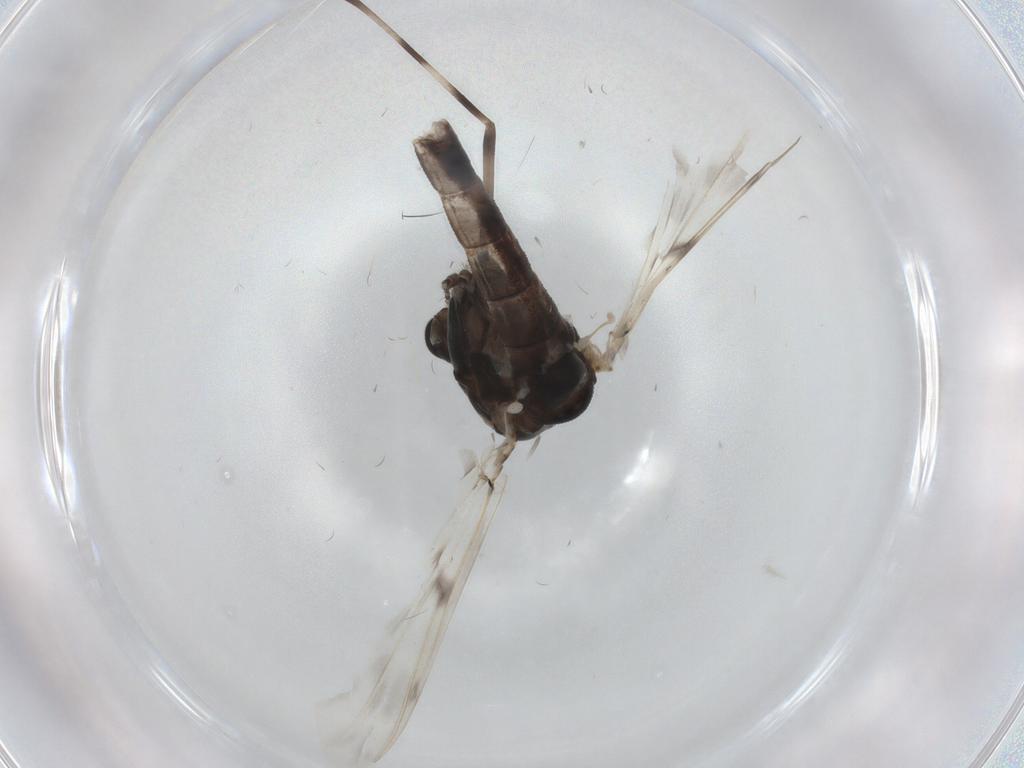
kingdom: Animalia
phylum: Arthropoda
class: Insecta
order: Diptera
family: Chironomidae
